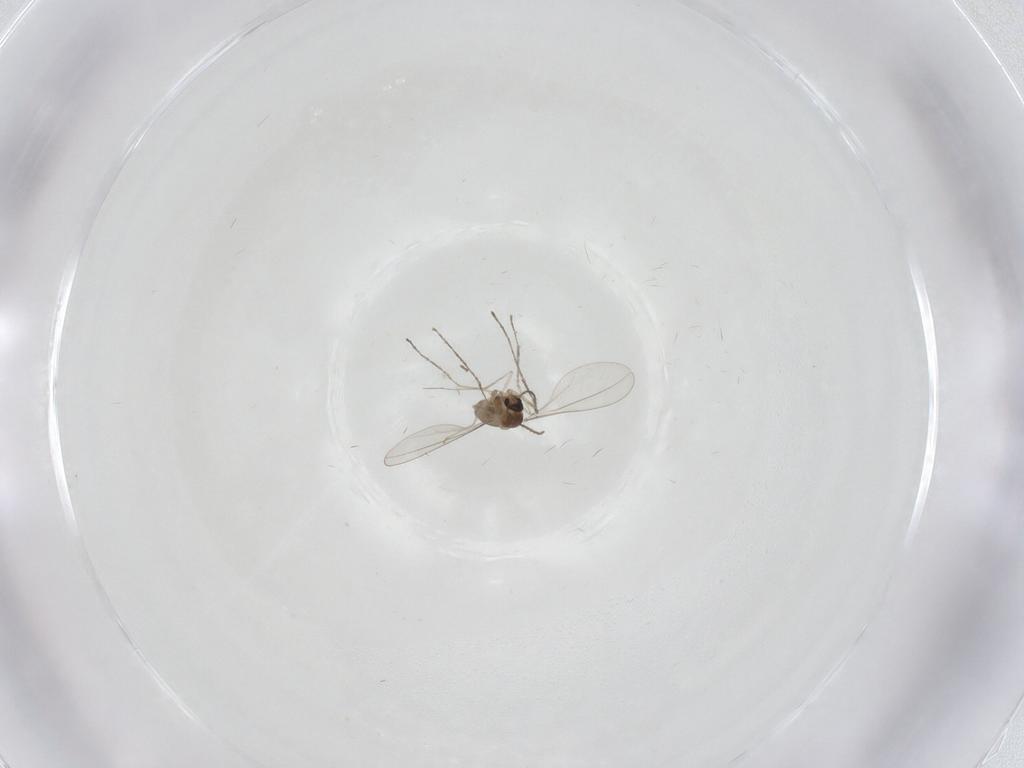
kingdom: Animalia
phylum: Arthropoda
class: Insecta
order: Diptera
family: Cecidomyiidae
